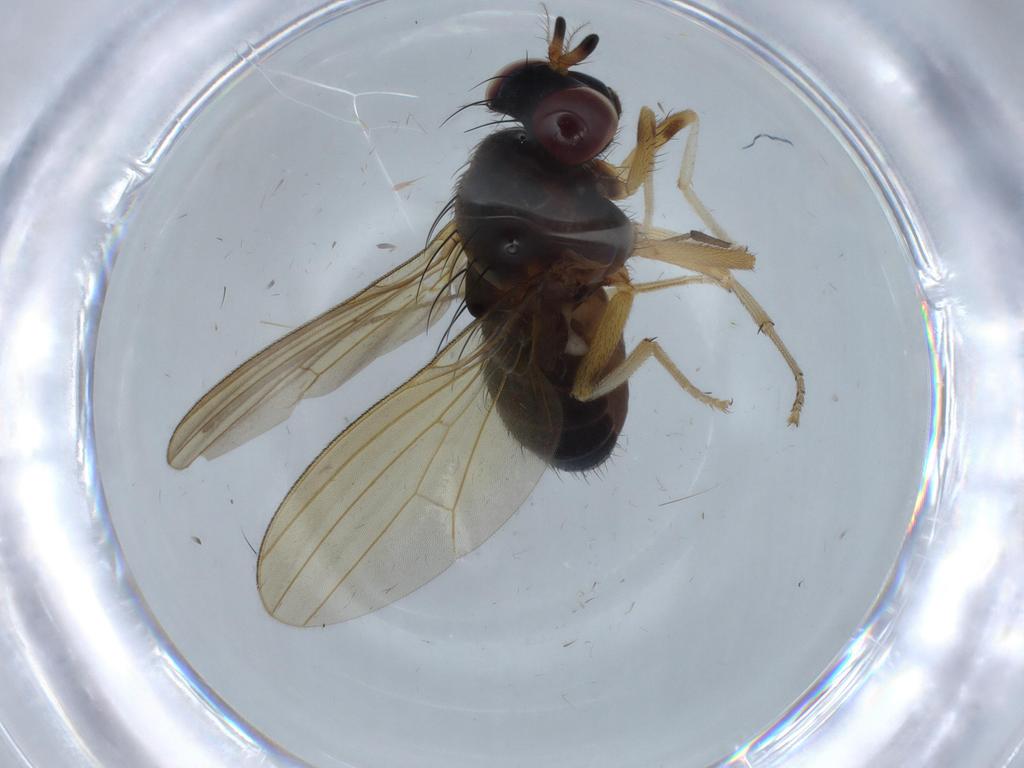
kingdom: Animalia
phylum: Arthropoda
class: Insecta
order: Diptera
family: Lauxaniidae
